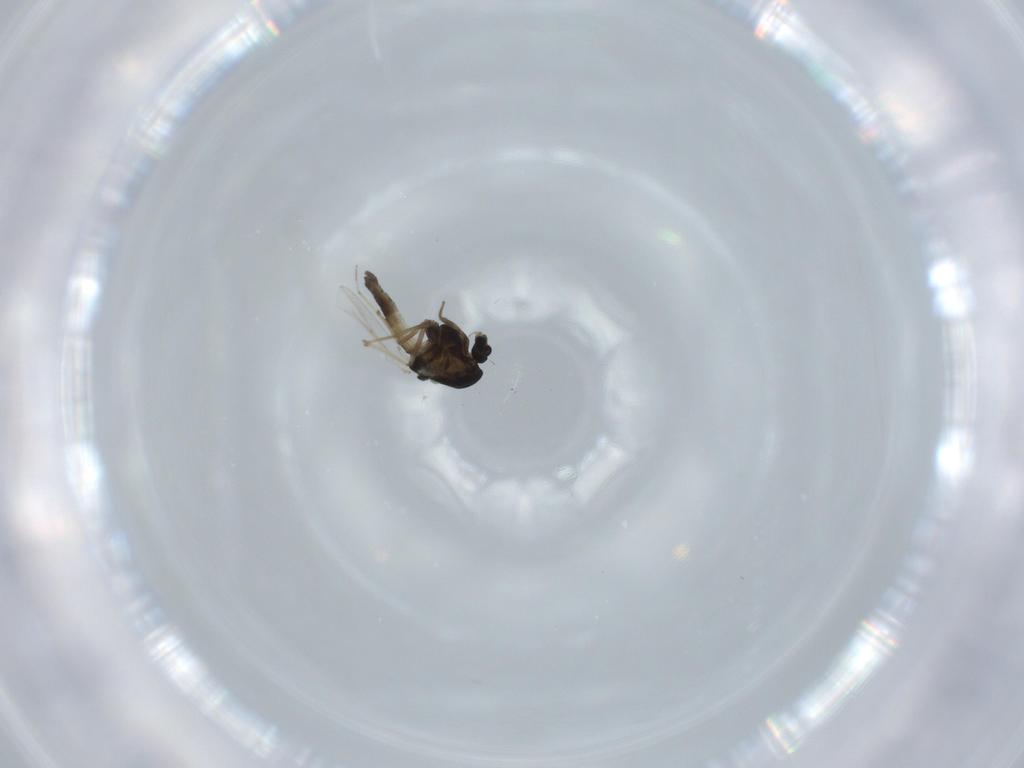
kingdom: Animalia
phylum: Arthropoda
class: Insecta
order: Diptera
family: Chironomidae
